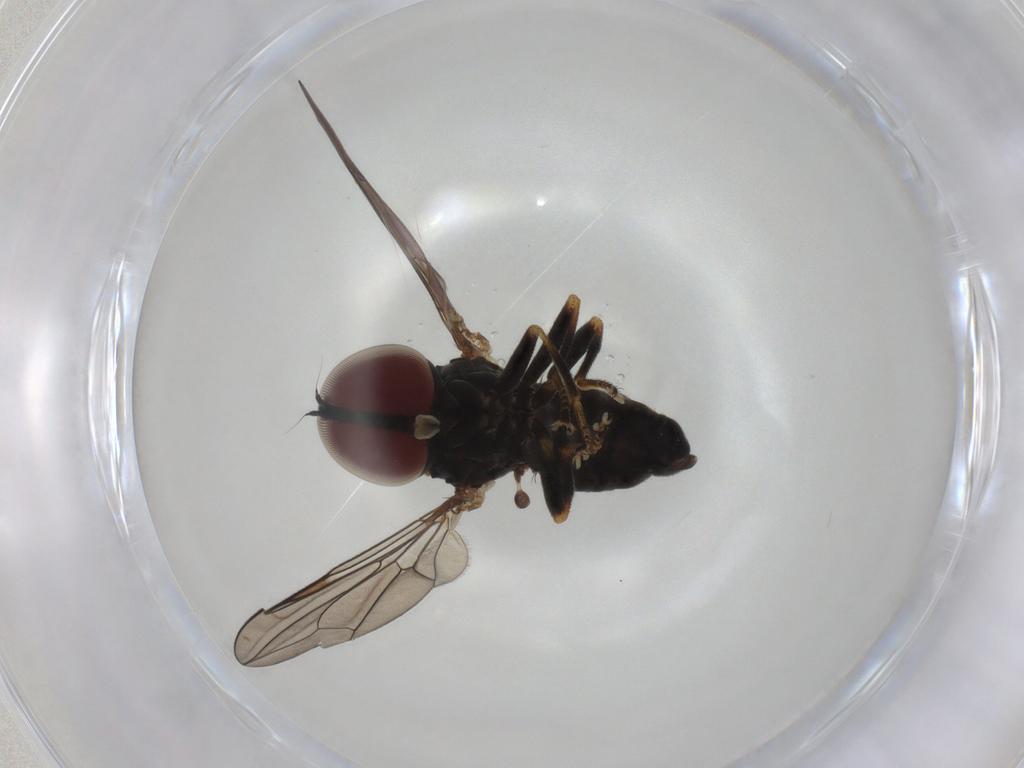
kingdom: Animalia
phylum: Arthropoda
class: Insecta
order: Diptera
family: Pipunculidae
